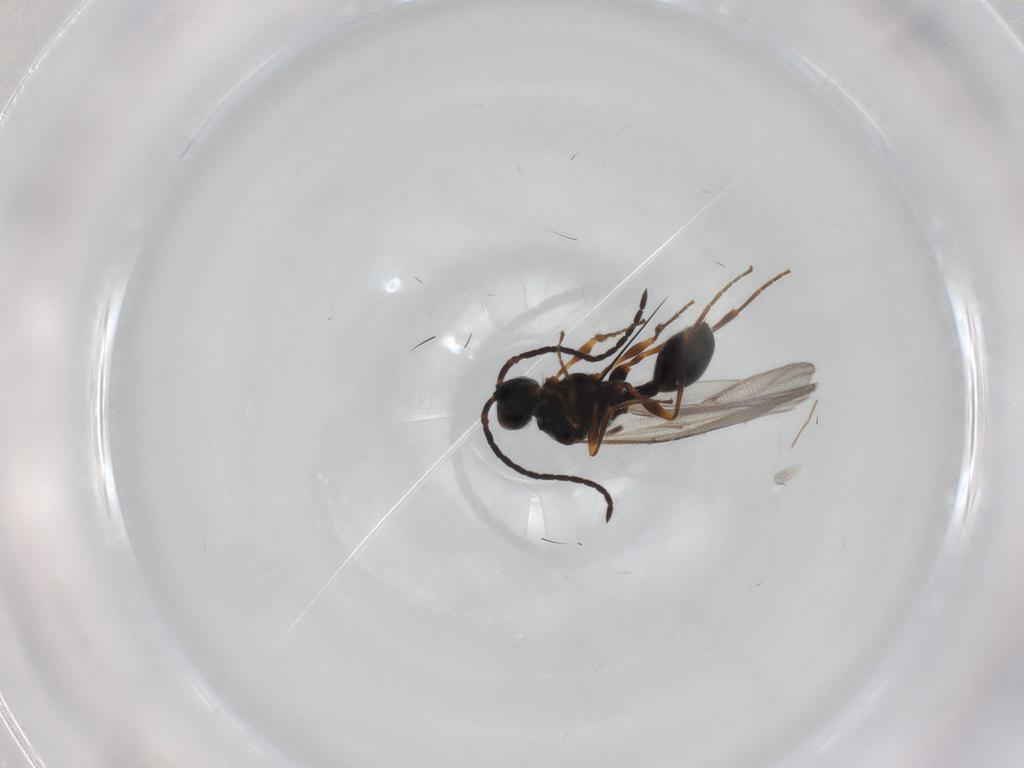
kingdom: Animalia
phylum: Arthropoda
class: Insecta
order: Hymenoptera
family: Diapriidae
